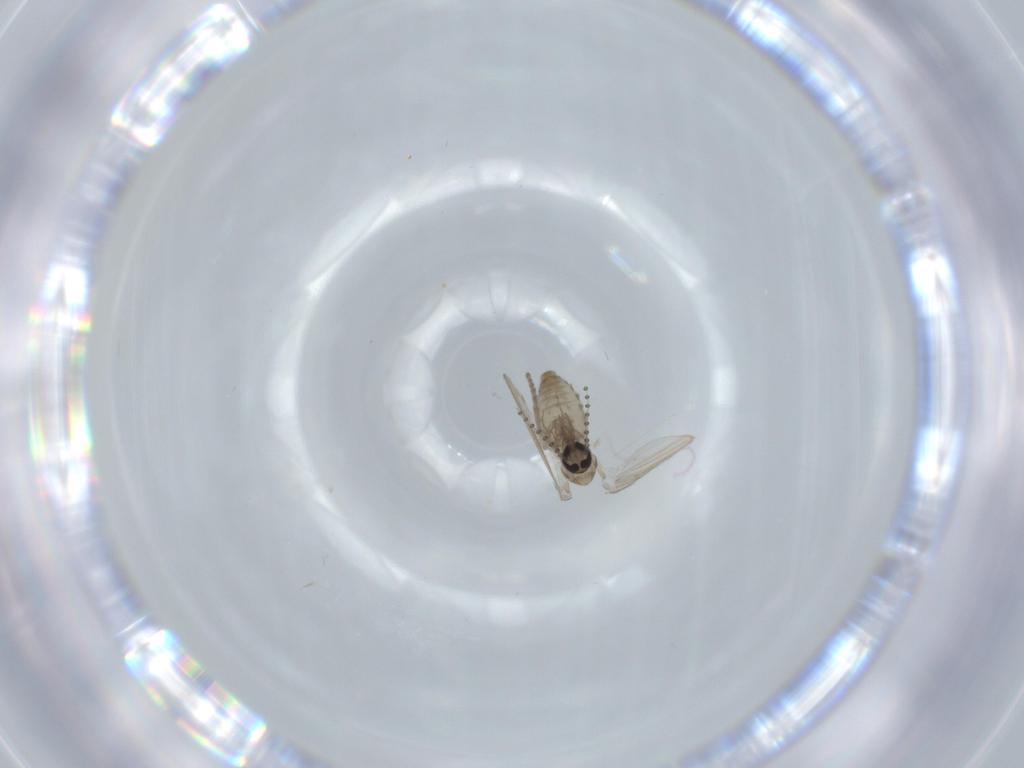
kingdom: Animalia
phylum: Arthropoda
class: Insecta
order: Diptera
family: Psychodidae
